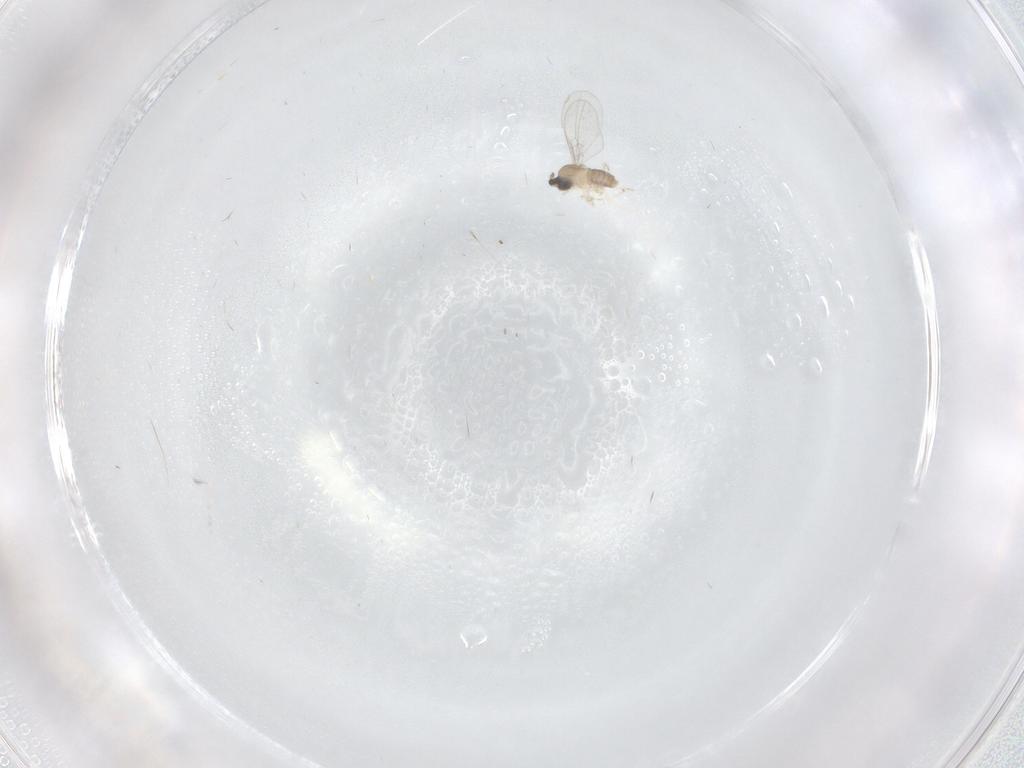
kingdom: Animalia
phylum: Arthropoda
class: Insecta
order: Diptera
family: Cecidomyiidae
